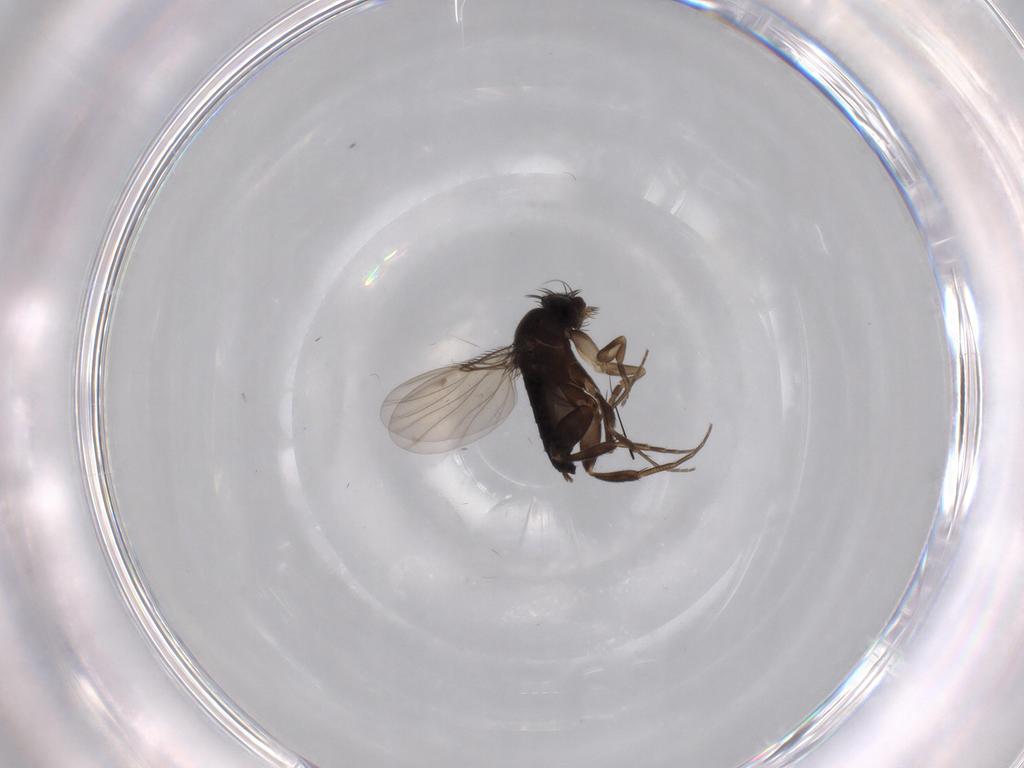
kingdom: Animalia
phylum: Arthropoda
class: Insecta
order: Diptera
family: Phoridae
